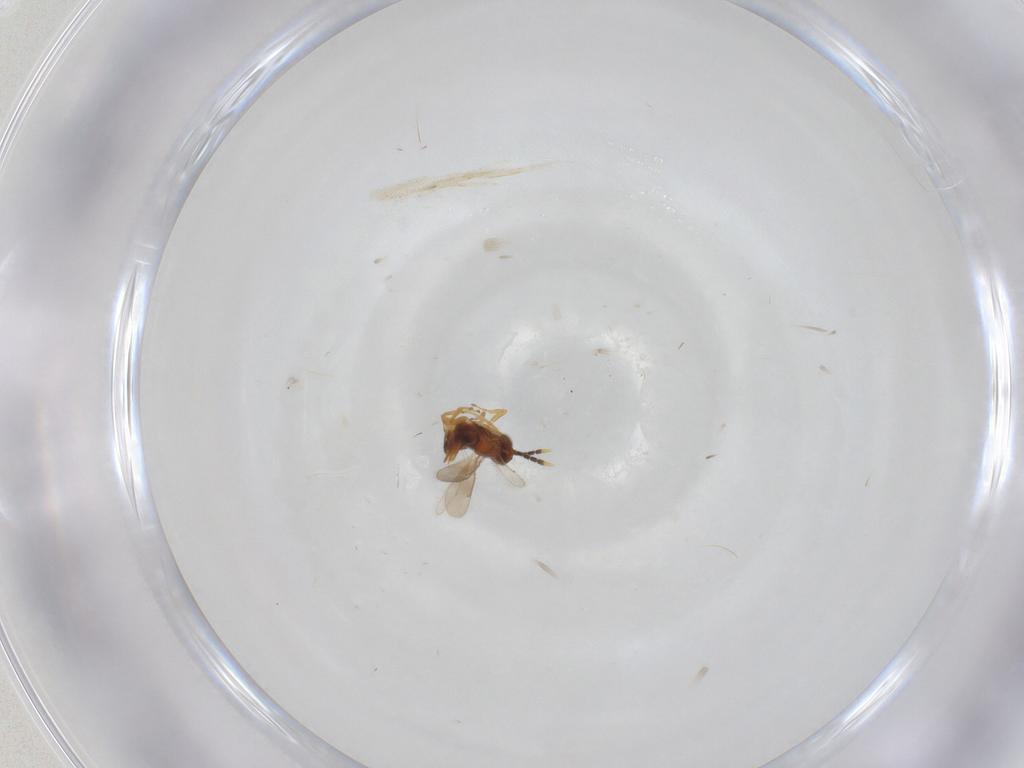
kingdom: Animalia
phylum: Arthropoda
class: Insecta
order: Hymenoptera
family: Aphelinidae
